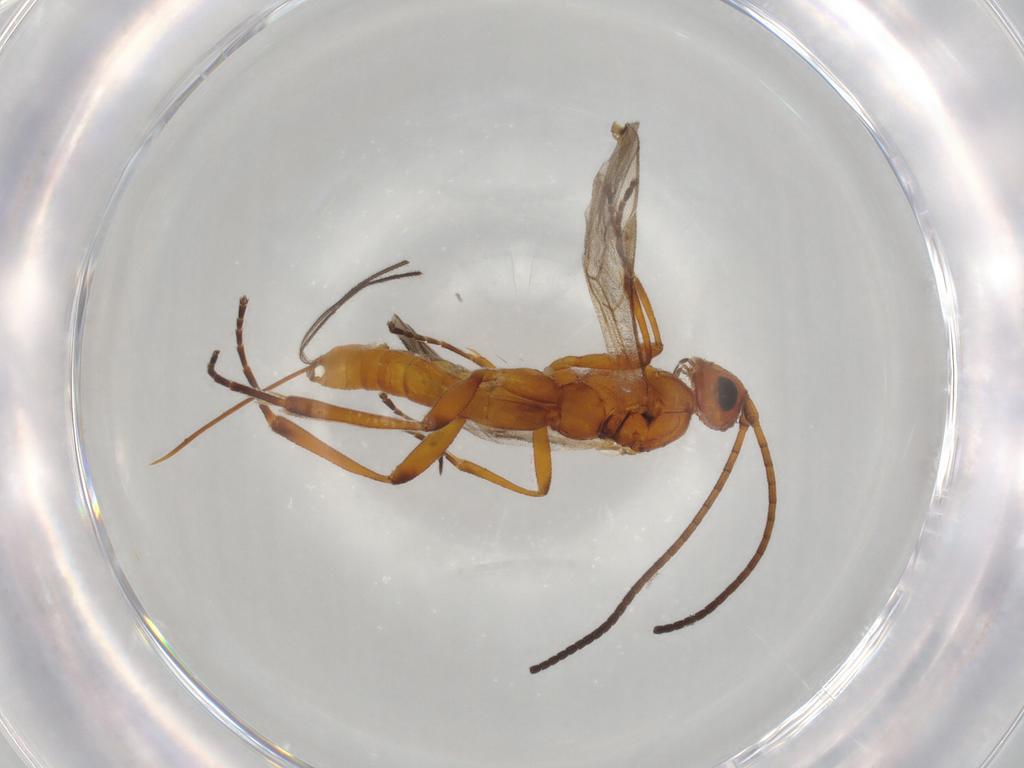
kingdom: Animalia
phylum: Arthropoda
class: Insecta
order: Hymenoptera
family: Braconidae
